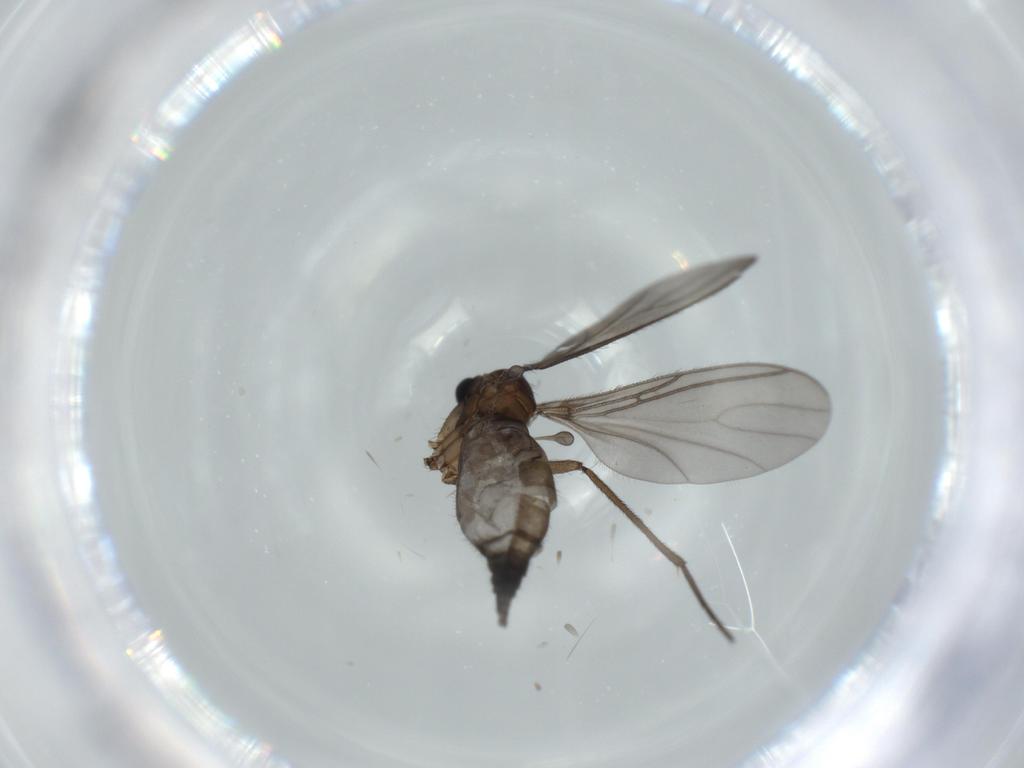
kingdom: Animalia
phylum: Arthropoda
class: Insecta
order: Diptera
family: Sciaridae
